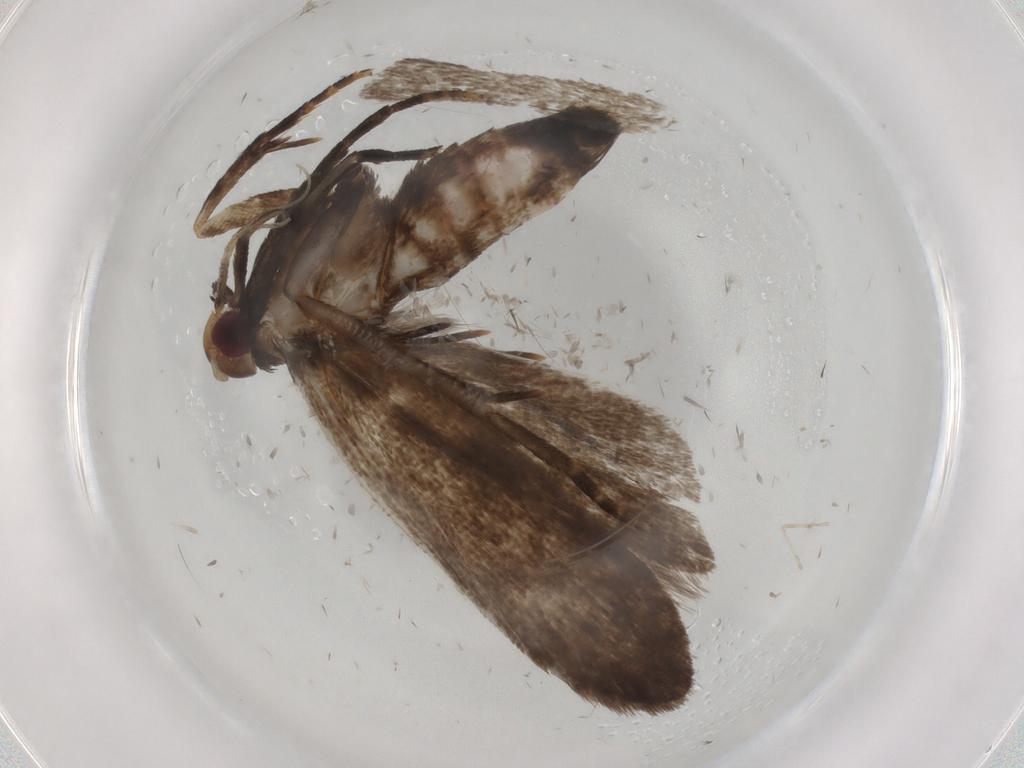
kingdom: Animalia
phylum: Arthropoda
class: Insecta
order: Lepidoptera
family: Gelechiidae
